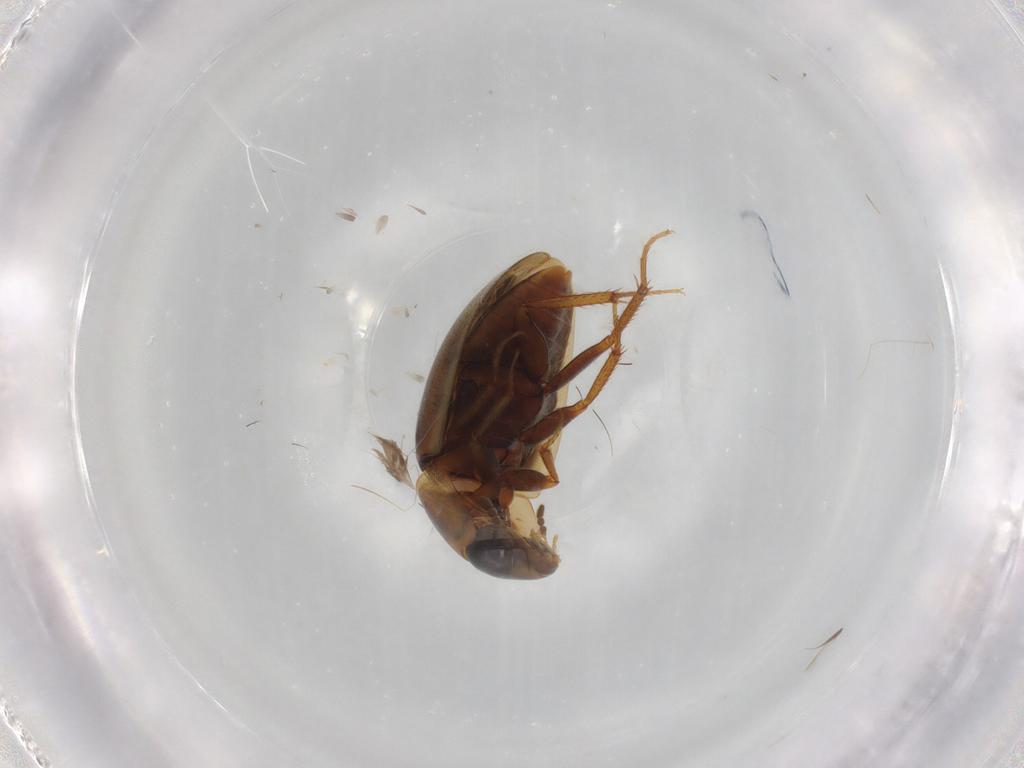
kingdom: Animalia
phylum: Arthropoda
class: Insecta
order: Coleoptera
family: Hydrophilidae
